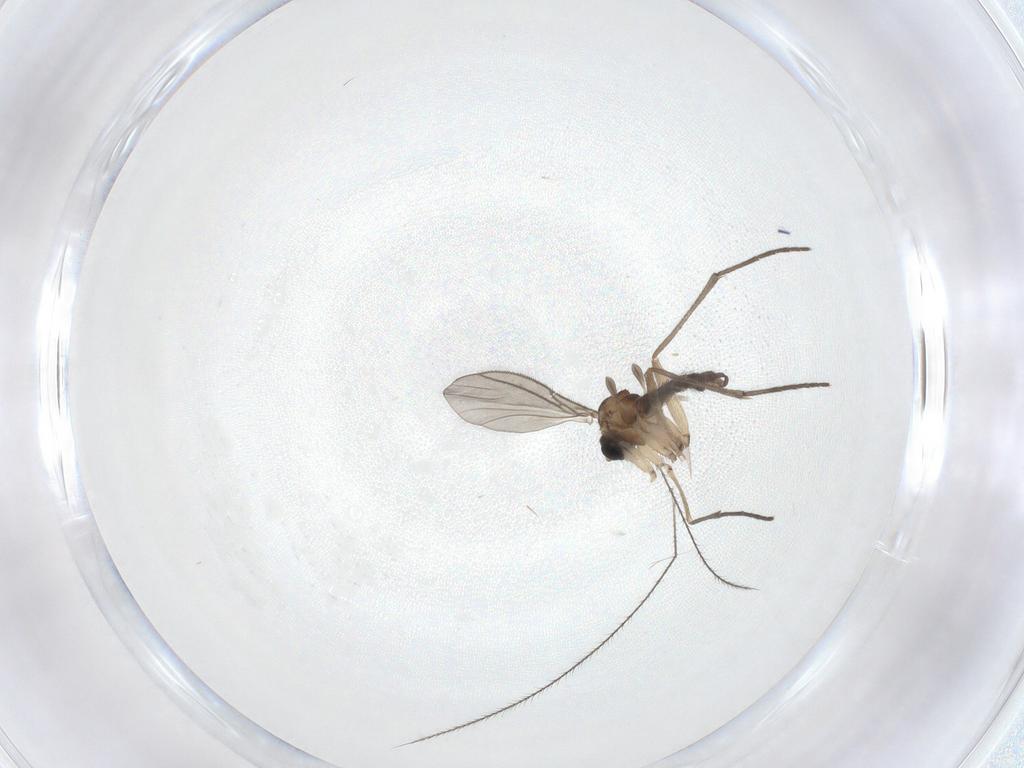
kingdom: Animalia
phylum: Arthropoda
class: Insecta
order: Diptera
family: Sciaridae
